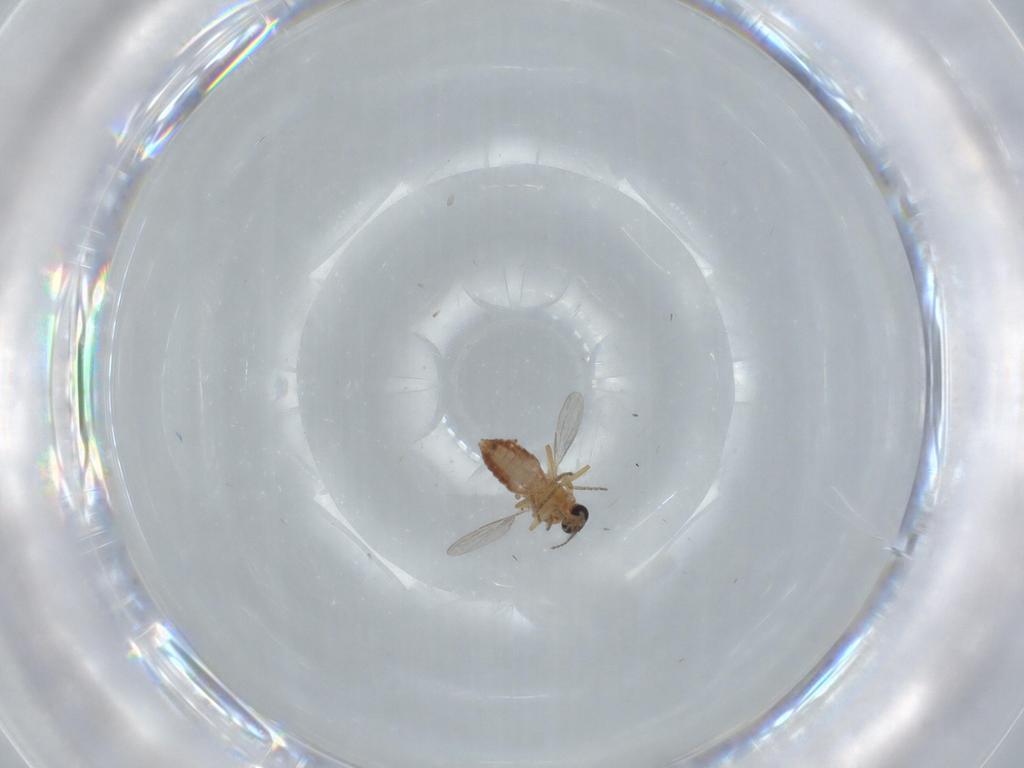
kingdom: Animalia
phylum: Arthropoda
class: Insecta
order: Diptera
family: Ceratopogonidae
